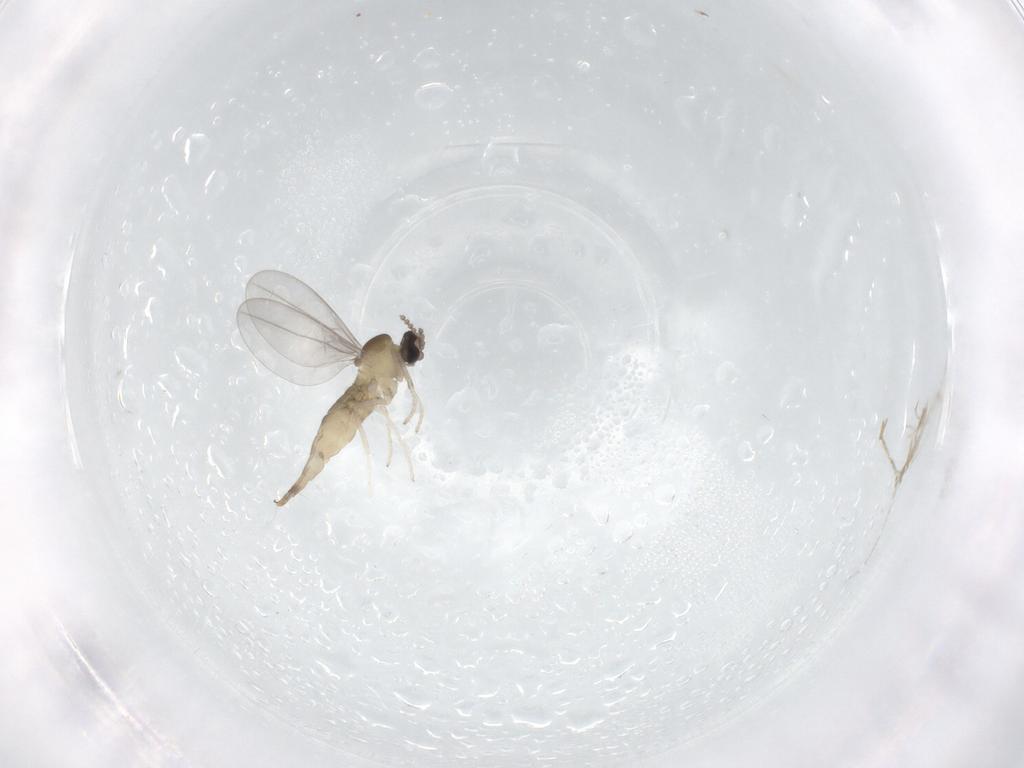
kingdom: Animalia
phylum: Arthropoda
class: Insecta
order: Diptera
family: Cecidomyiidae
